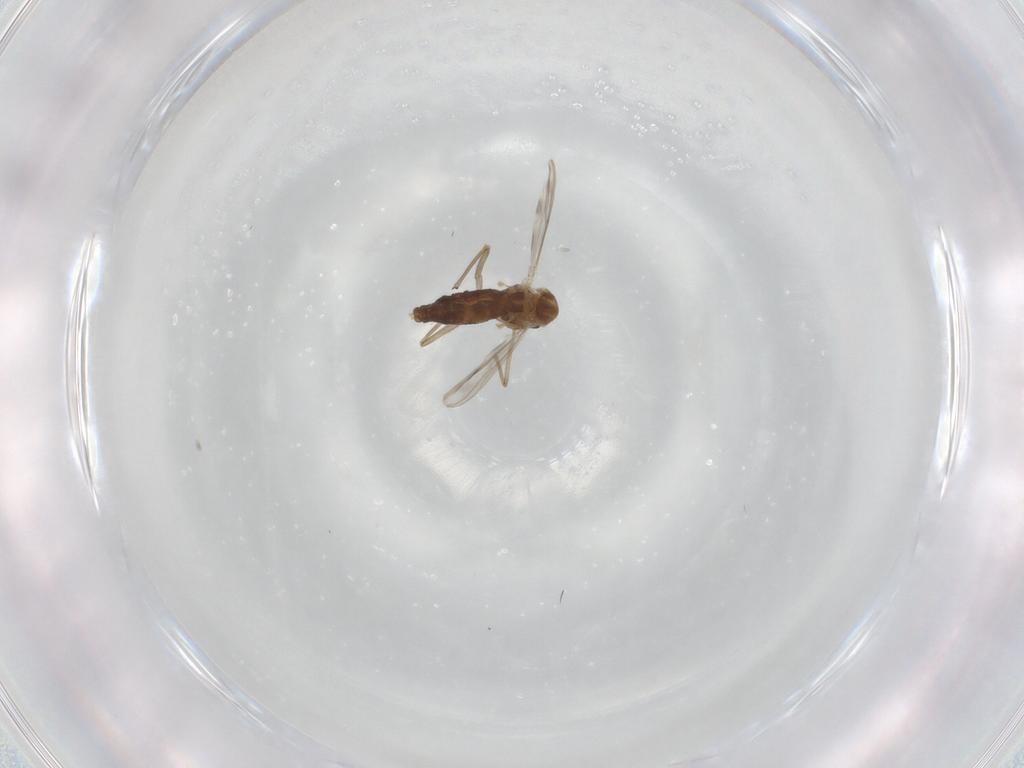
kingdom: Animalia
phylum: Arthropoda
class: Insecta
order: Diptera
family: Chironomidae
